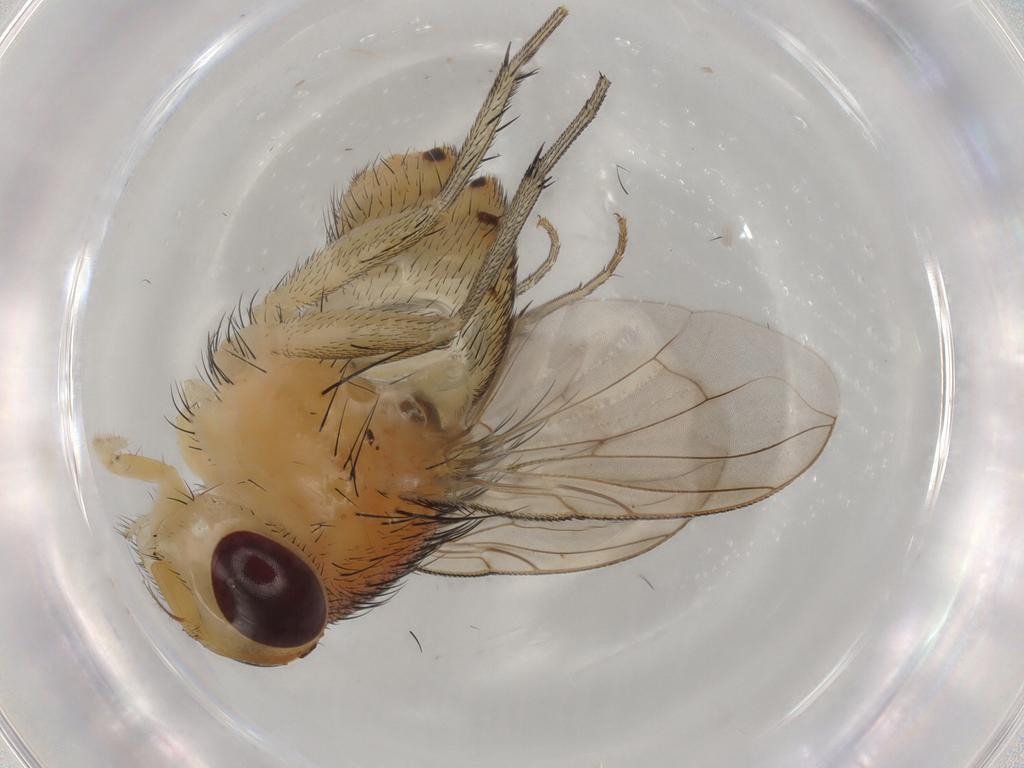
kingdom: Animalia
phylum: Arthropoda
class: Insecta
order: Diptera
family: Calliphoridae
